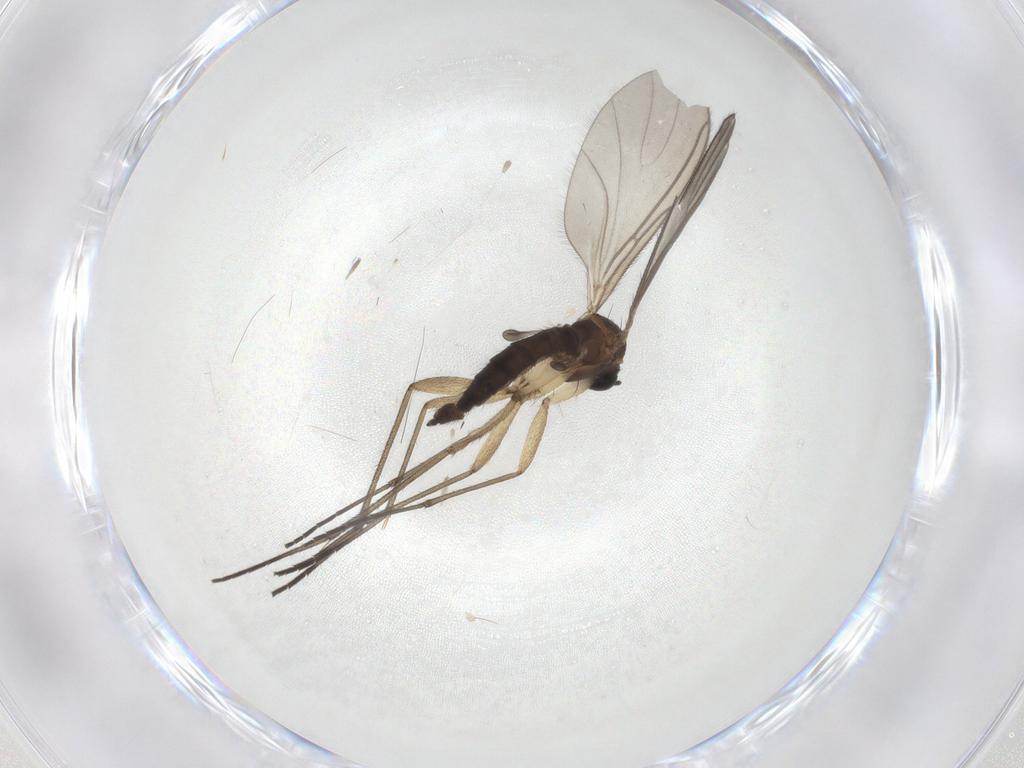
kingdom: Animalia
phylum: Arthropoda
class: Insecta
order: Diptera
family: Sciaridae
